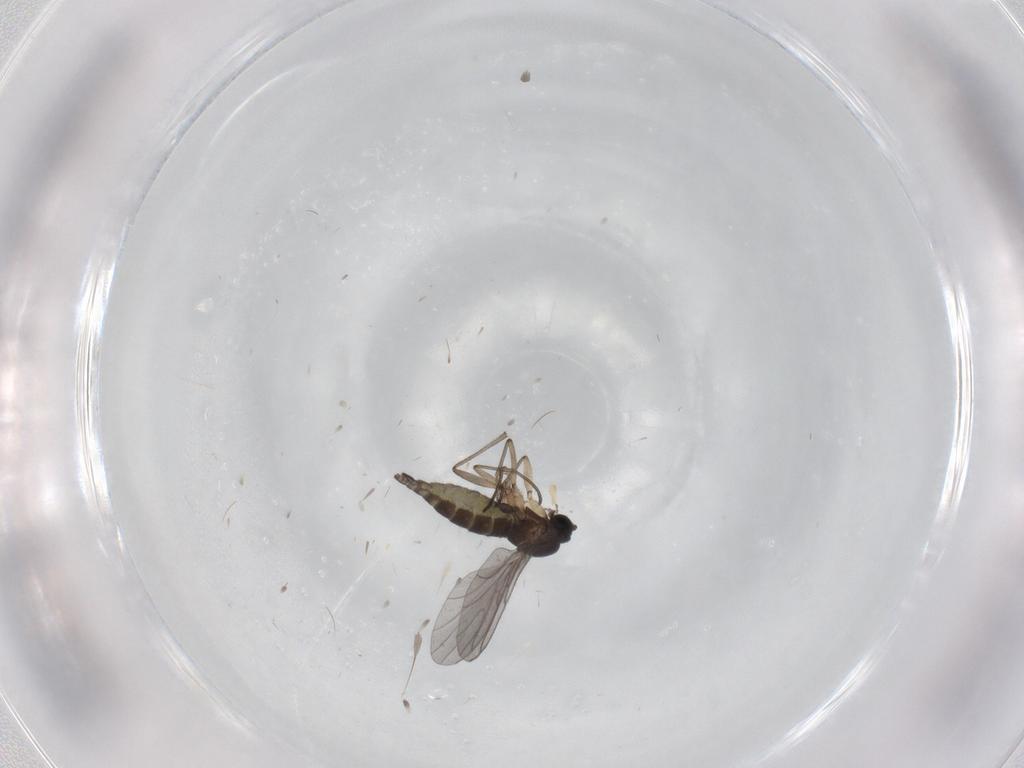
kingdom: Animalia
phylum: Arthropoda
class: Insecta
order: Diptera
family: Sciaridae
